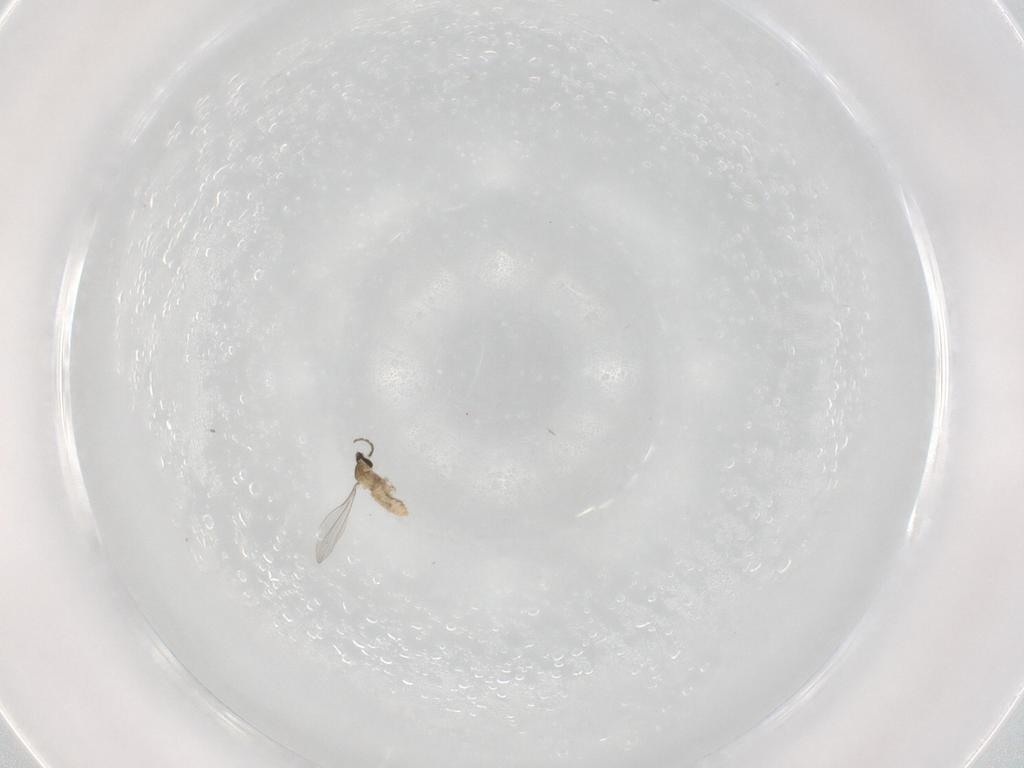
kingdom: Animalia
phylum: Arthropoda
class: Insecta
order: Diptera
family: Cecidomyiidae
